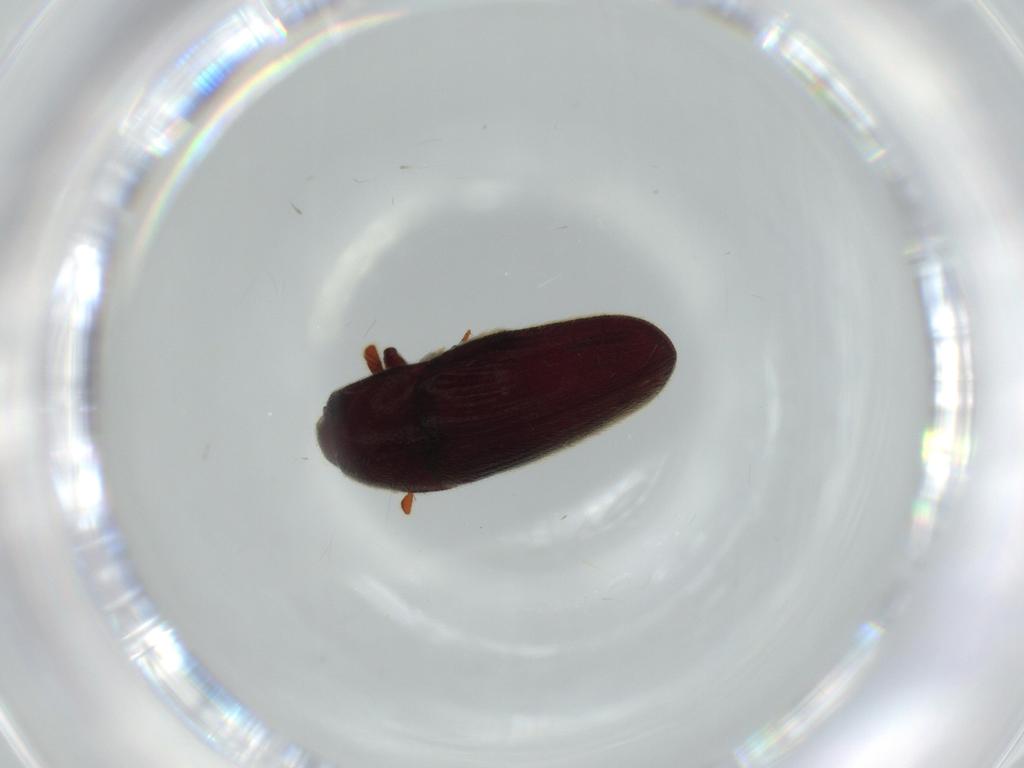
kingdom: Animalia
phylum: Arthropoda
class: Insecta
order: Coleoptera
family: Throscidae
